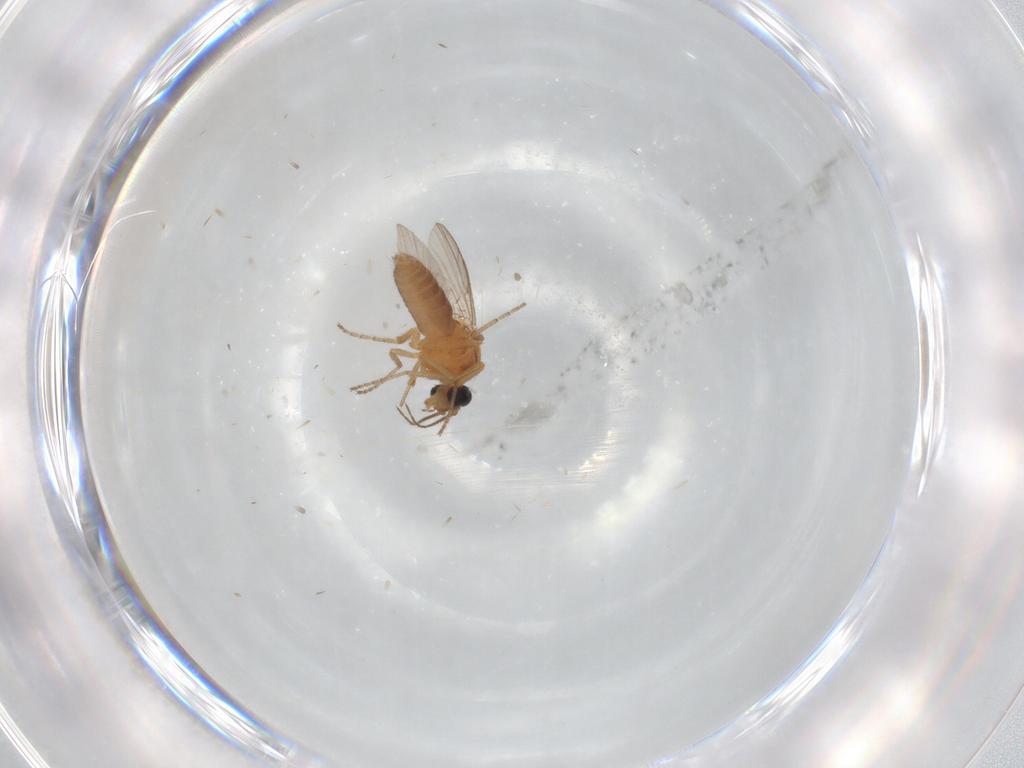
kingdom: Animalia
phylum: Arthropoda
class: Insecta
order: Diptera
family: Ceratopogonidae
